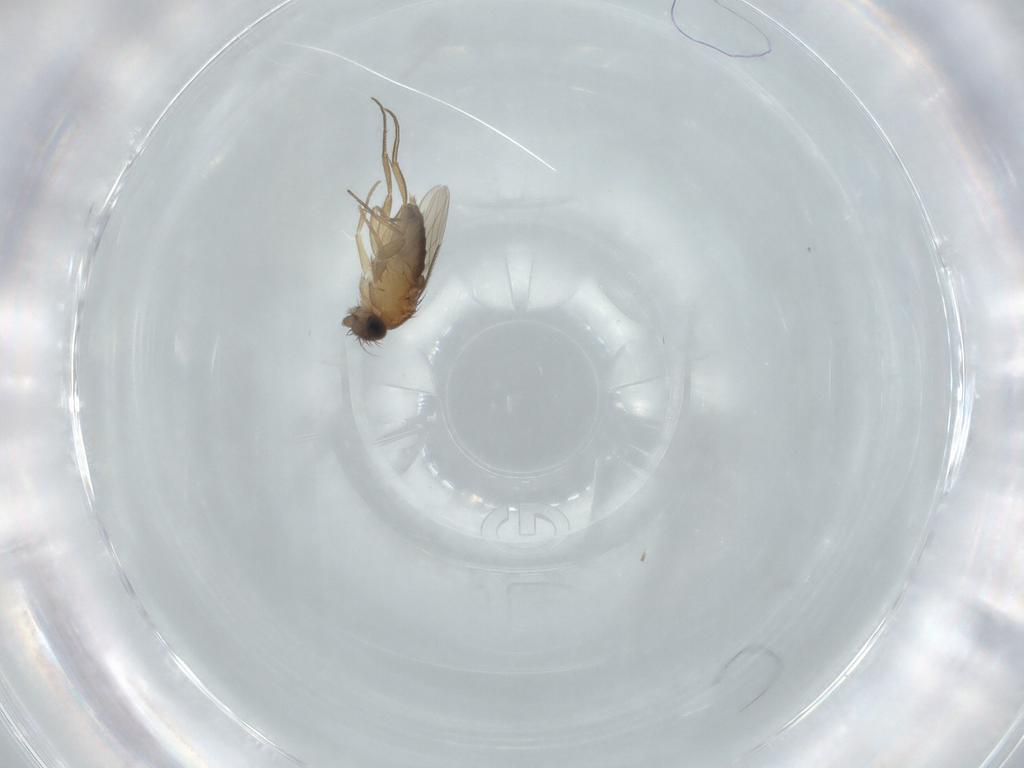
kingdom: Animalia
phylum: Arthropoda
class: Insecta
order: Diptera
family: Phoridae
